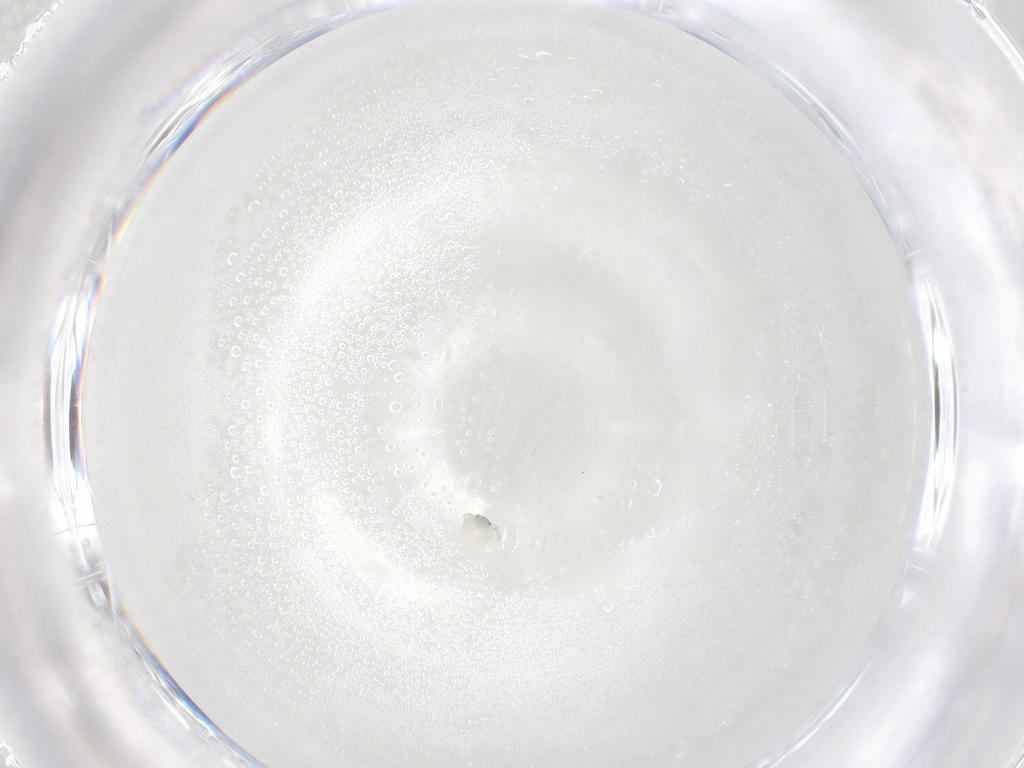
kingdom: Animalia
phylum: Arthropoda
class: Arachnida
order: Trombidiformes
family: Arrenuridae
